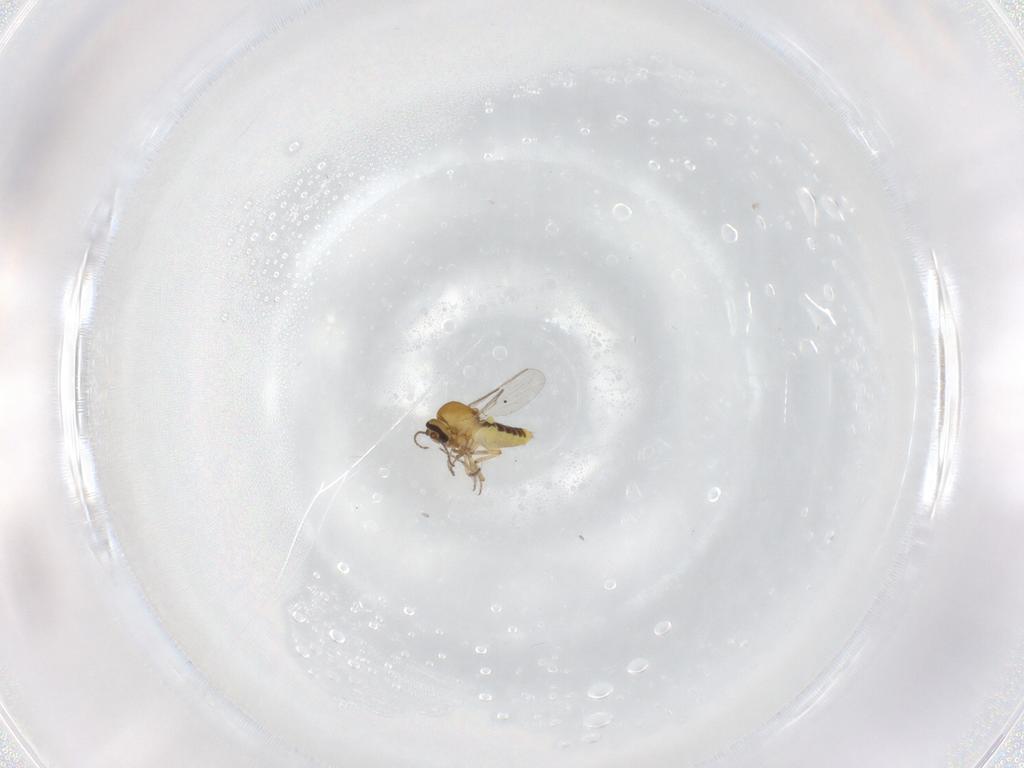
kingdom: Animalia
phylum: Arthropoda
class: Insecta
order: Diptera
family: Ceratopogonidae
